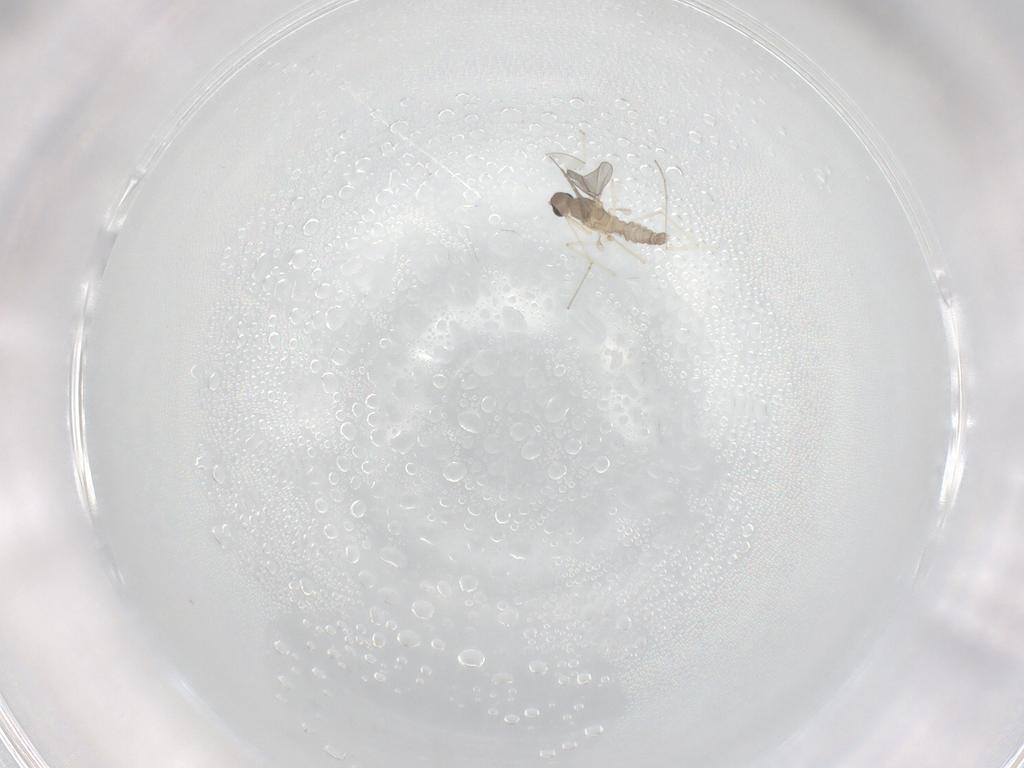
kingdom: Animalia
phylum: Arthropoda
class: Insecta
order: Diptera
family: Cecidomyiidae
